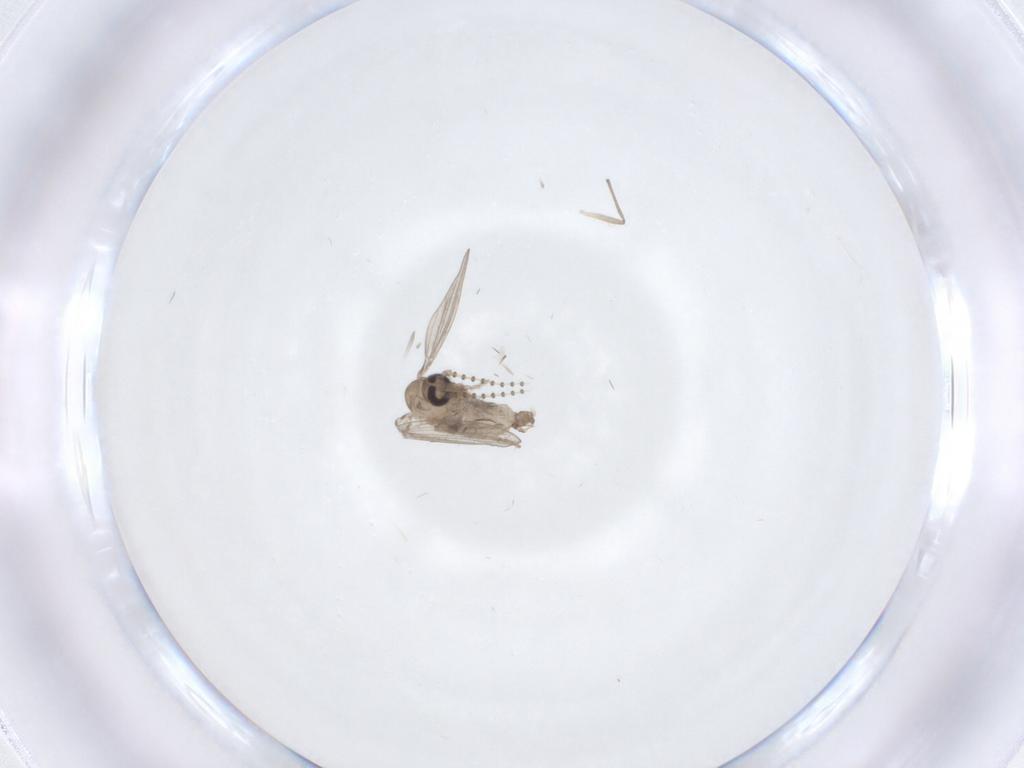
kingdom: Animalia
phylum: Arthropoda
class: Insecta
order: Diptera
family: Psychodidae
